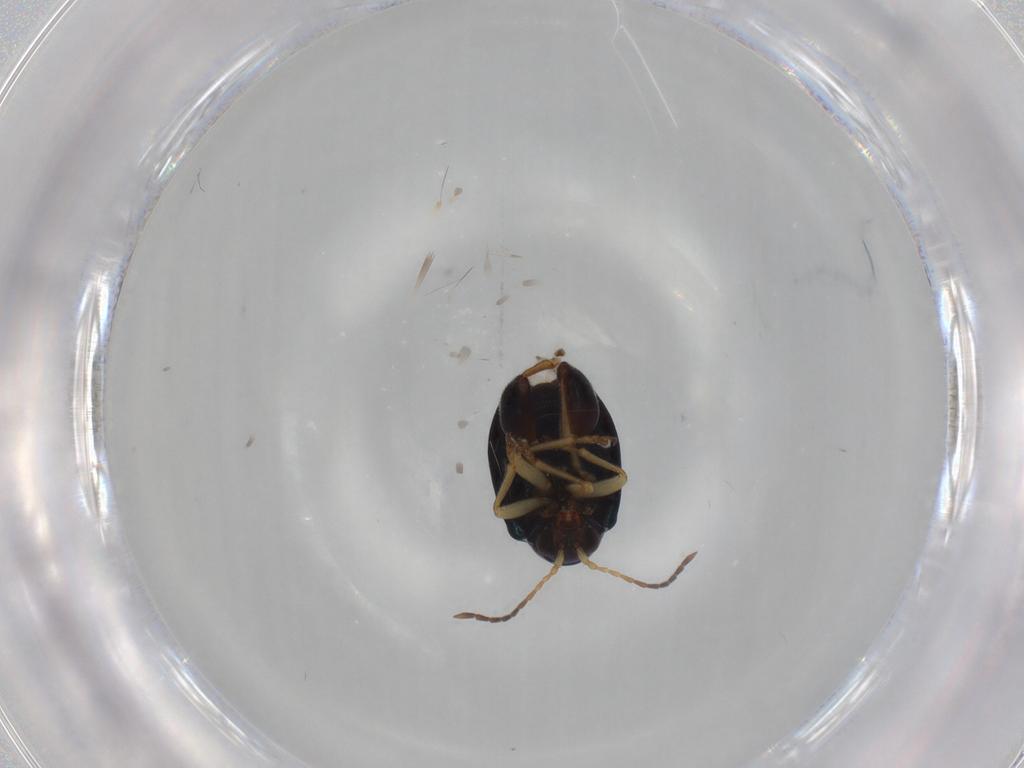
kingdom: Animalia
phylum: Arthropoda
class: Insecta
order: Coleoptera
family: Chrysomelidae
